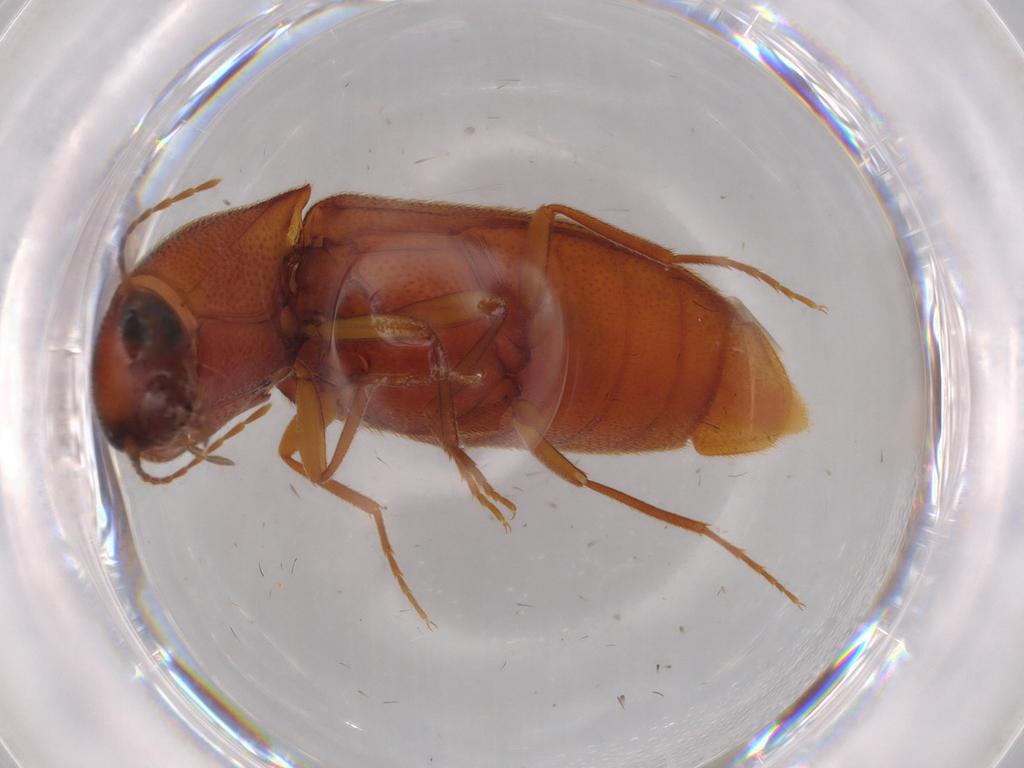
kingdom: Animalia
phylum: Arthropoda
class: Insecta
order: Coleoptera
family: Elateridae
